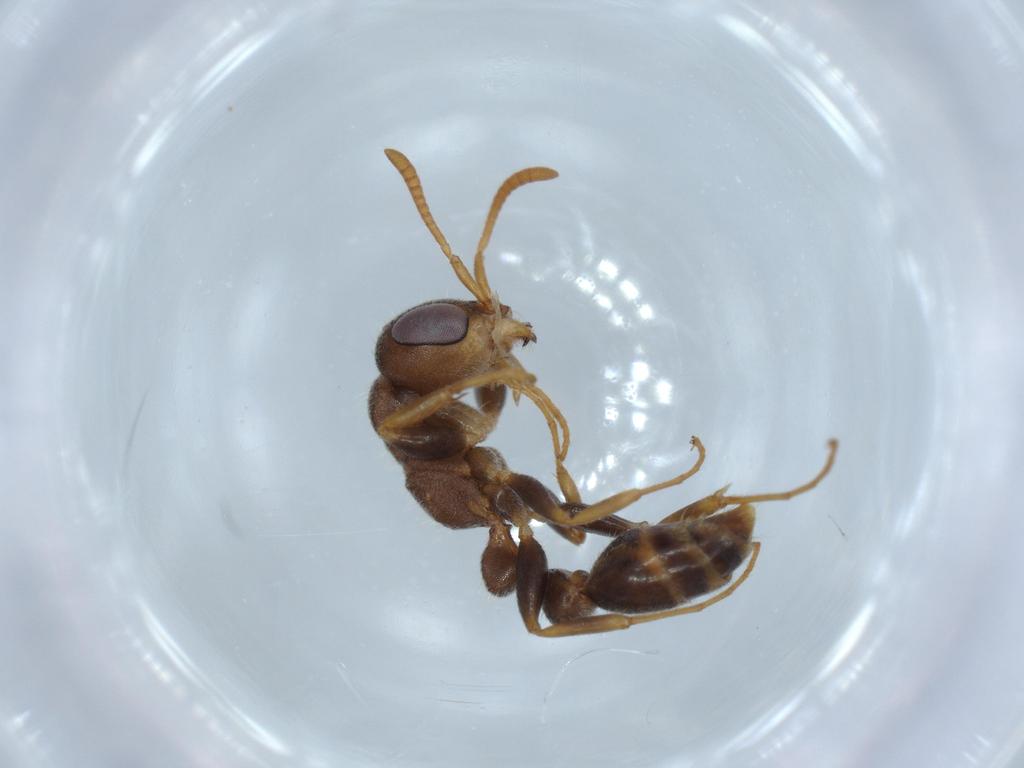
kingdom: Animalia
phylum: Arthropoda
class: Insecta
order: Hymenoptera
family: Formicidae
